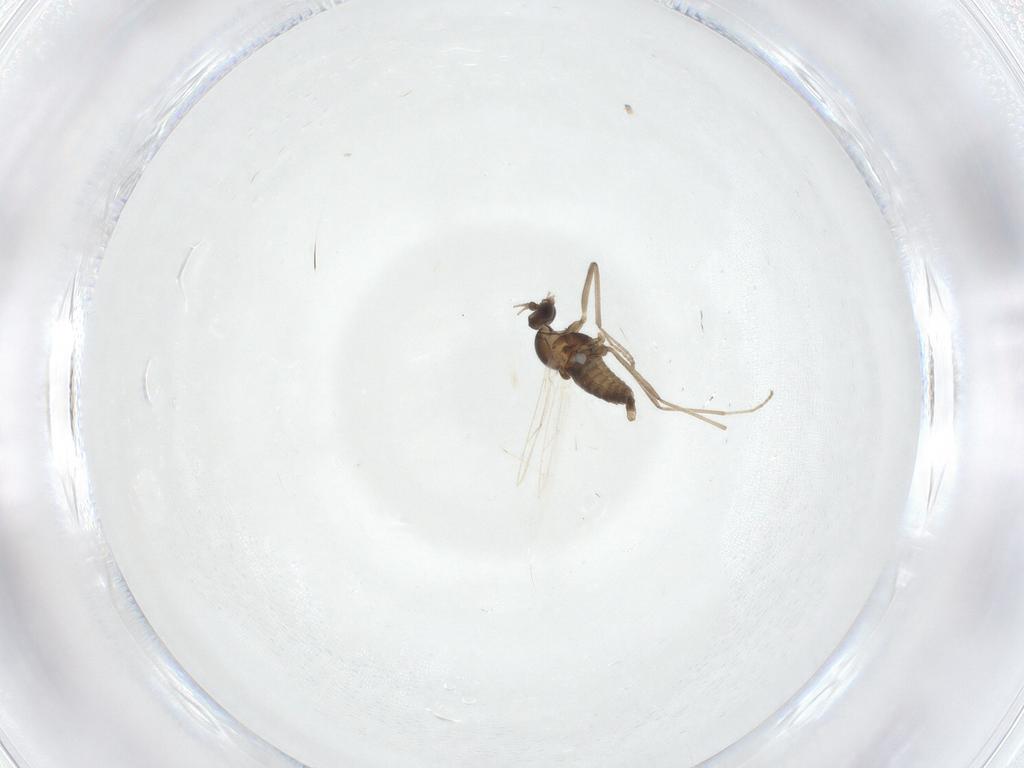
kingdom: Animalia
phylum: Arthropoda
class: Insecta
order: Diptera
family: Cecidomyiidae
